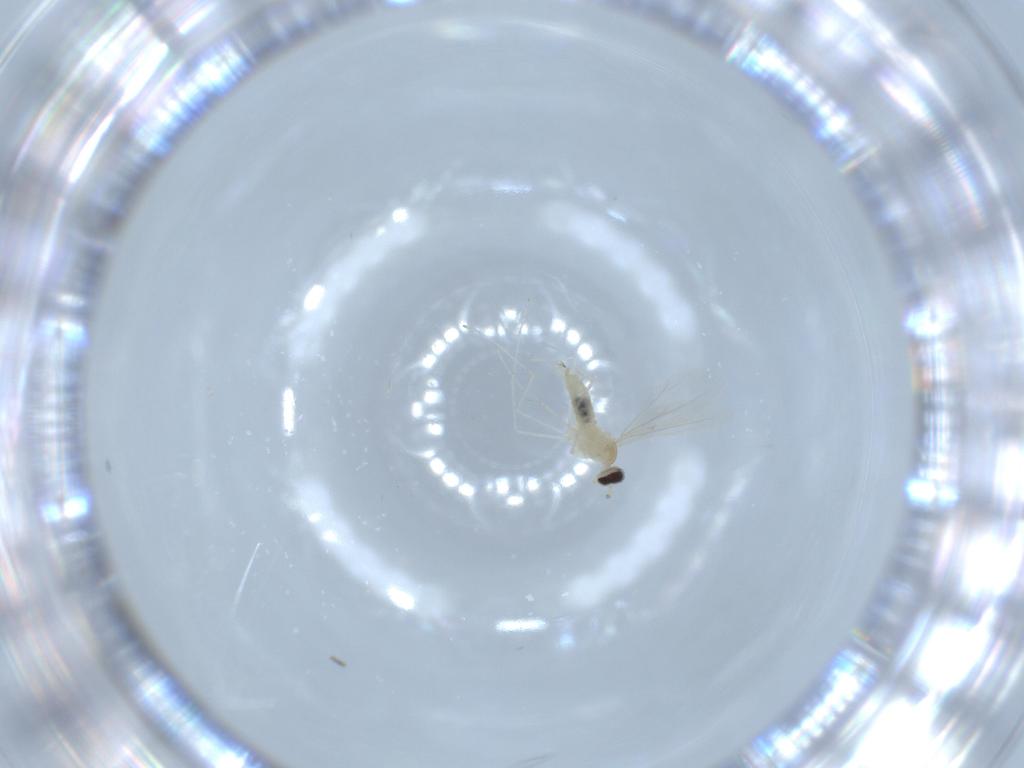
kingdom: Animalia
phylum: Arthropoda
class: Insecta
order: Diptera
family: Cecidomyiidae
